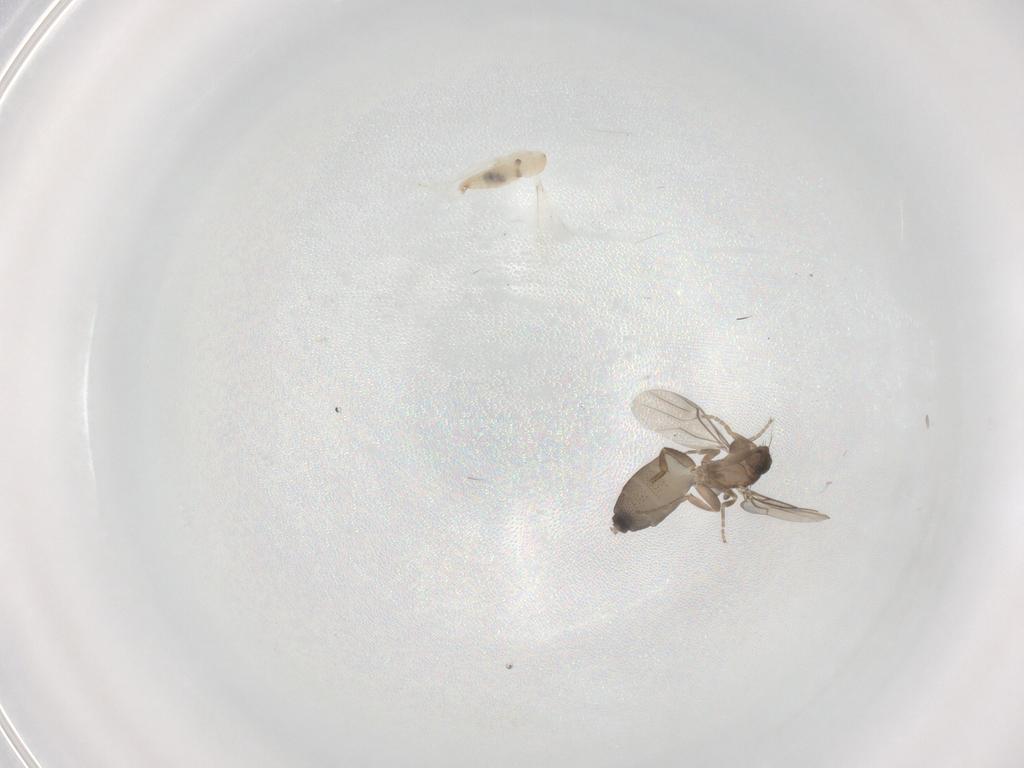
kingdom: Animalia
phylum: Arthropoda
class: Insecta
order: Diptera
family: Cecidomyiidae
